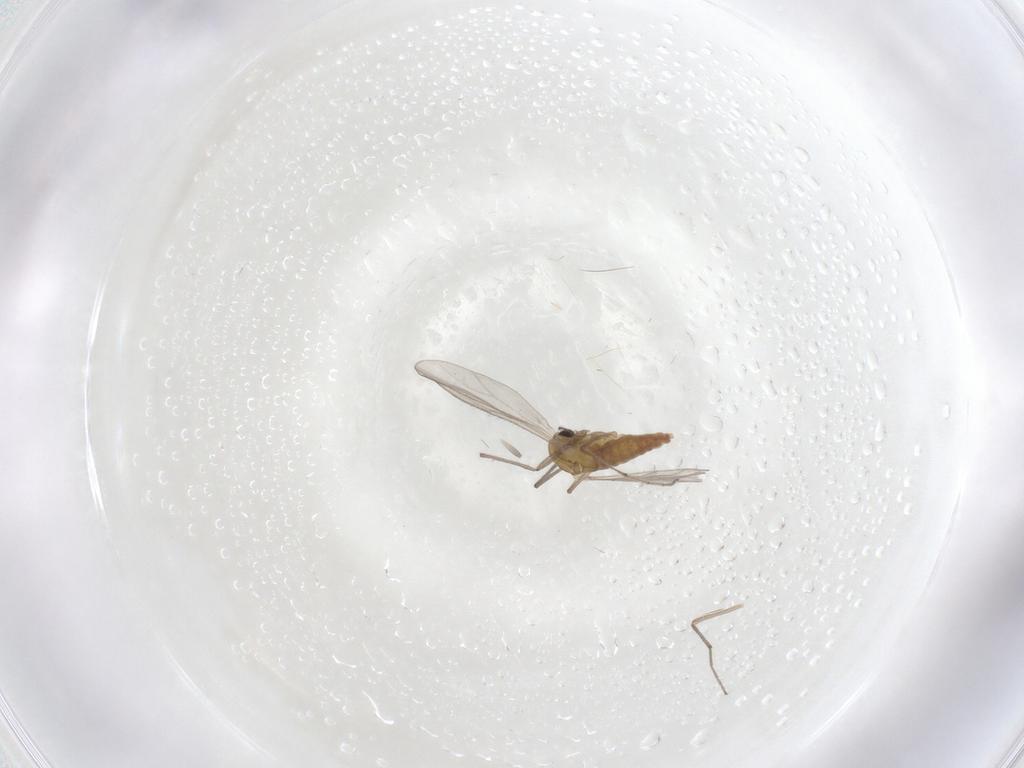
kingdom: Animalia
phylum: Arthropoda
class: Insecta
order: Diptera
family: Chironomidae
